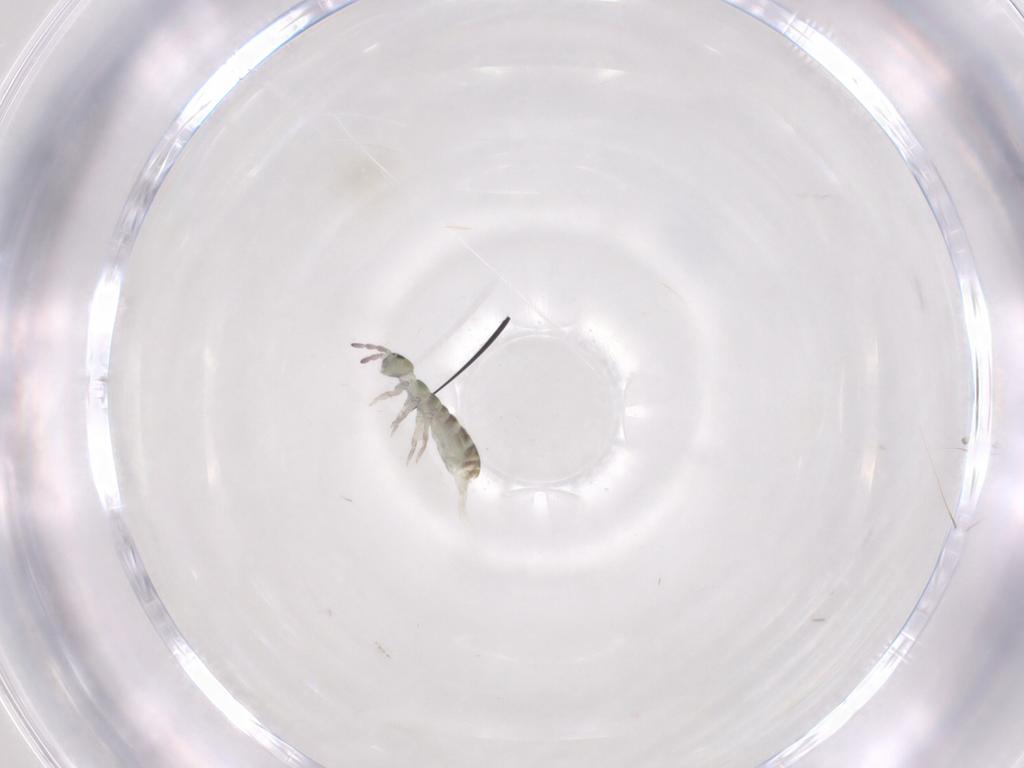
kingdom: Animalia
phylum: Arthropoda
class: Collembola
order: Entomobryomorpha
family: Isotomidae
